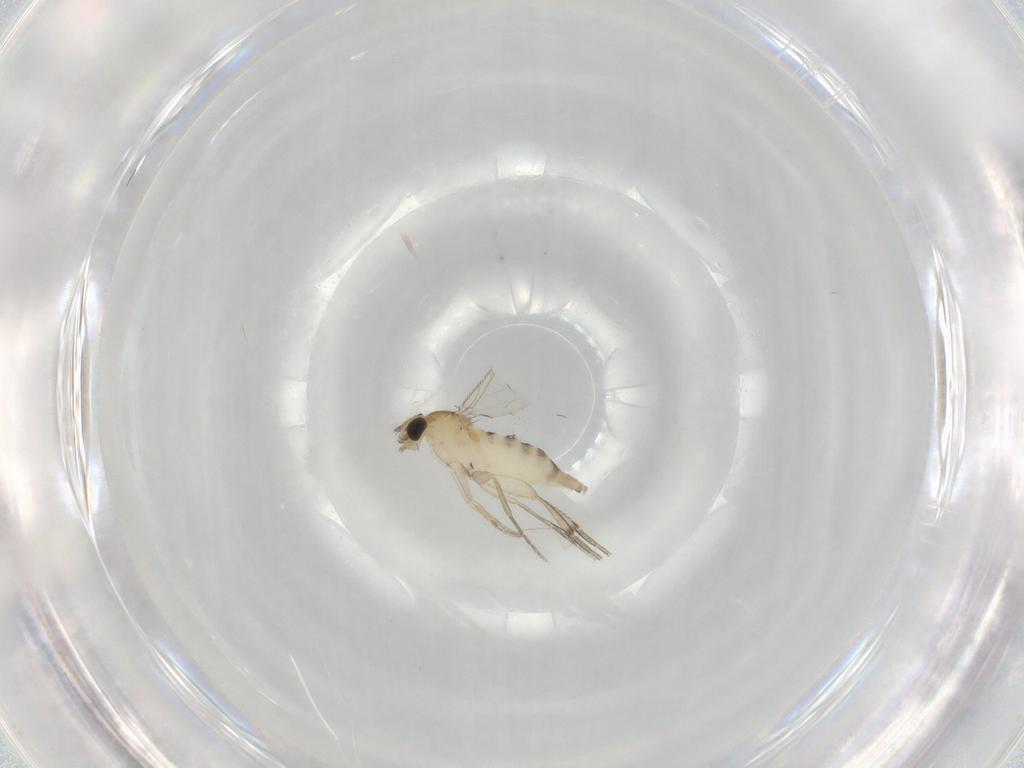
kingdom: Animalia
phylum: Arthropoda
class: Insecta
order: Diptera
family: Phoridae
